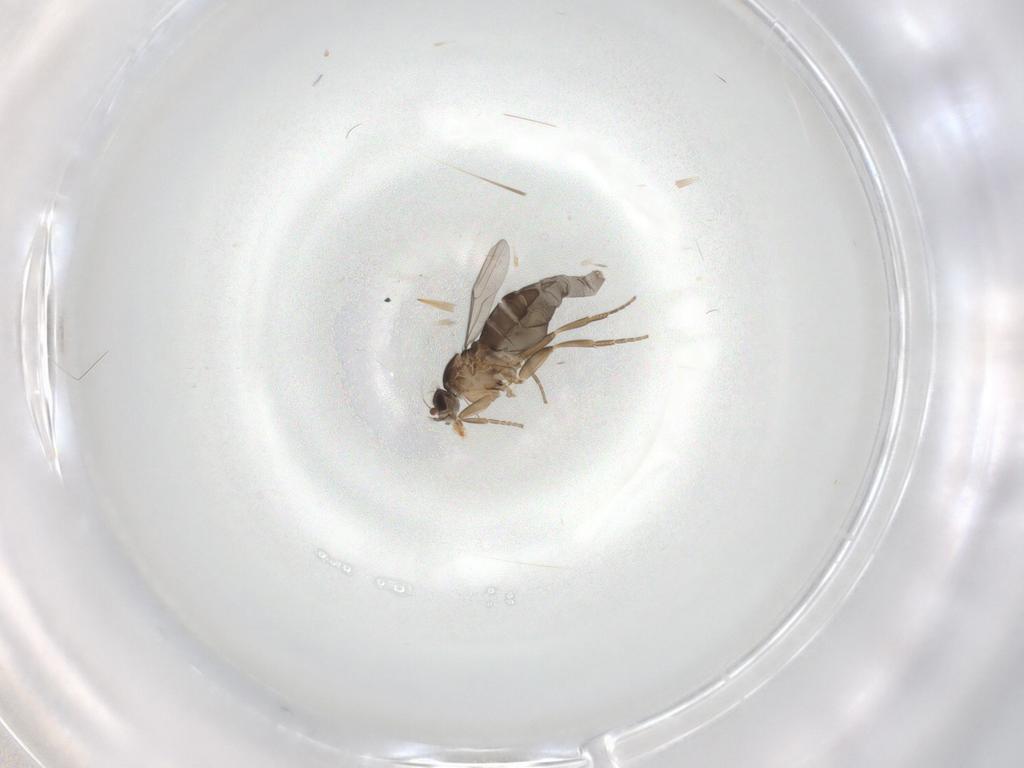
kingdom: Animalia
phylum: Arthropoda
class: Insecta
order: Diptera
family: Phoridae
